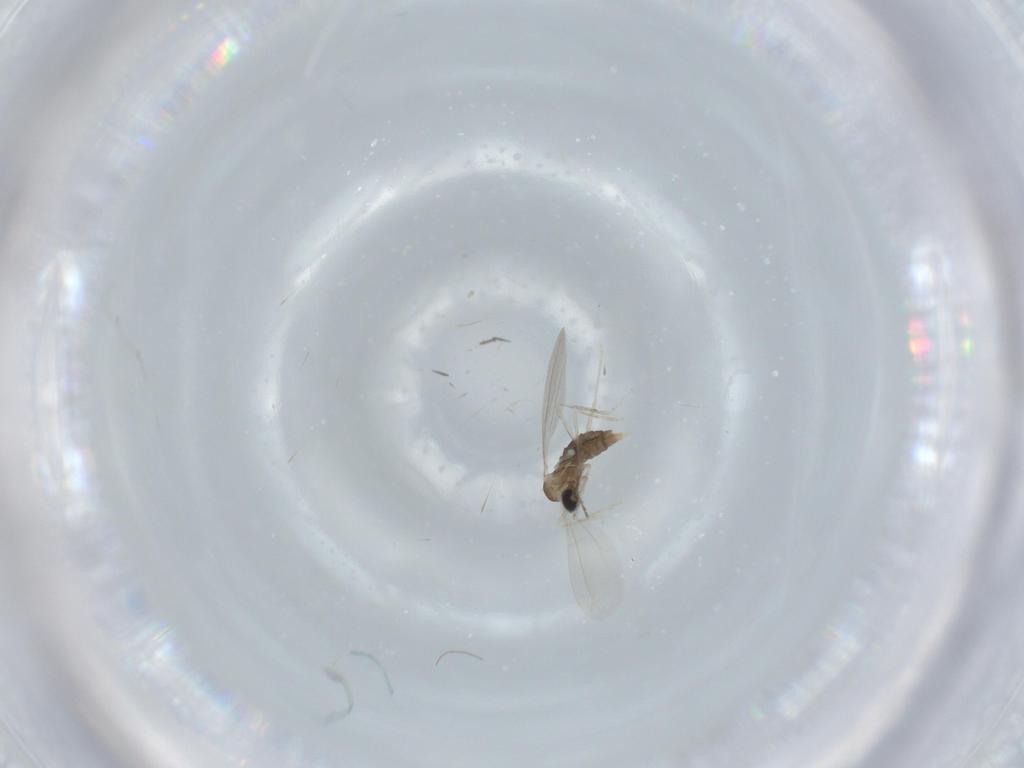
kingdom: Animalia
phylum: Arthropoda
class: Insecta
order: Diptera
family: Cecidomyiidae
